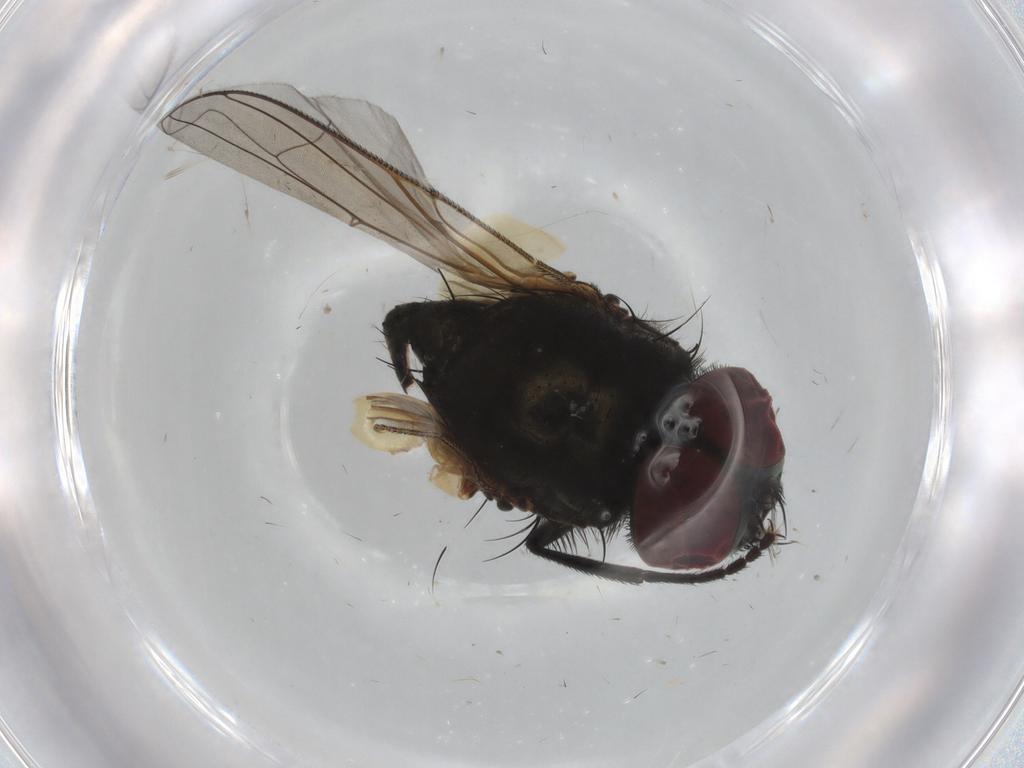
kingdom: Animalia
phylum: Arthropoda
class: Insecta
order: Diptera
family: Muscidae
